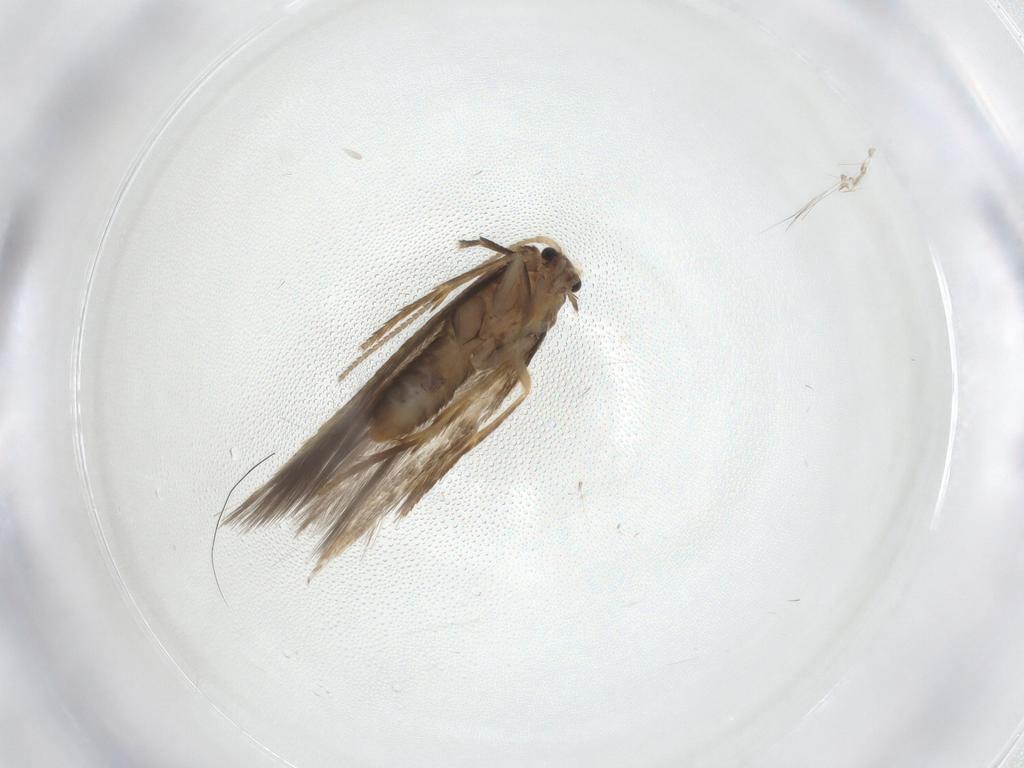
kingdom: Animalia
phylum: Arthropoda
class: Insecta
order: Lepidoptera
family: Nepticulidae
